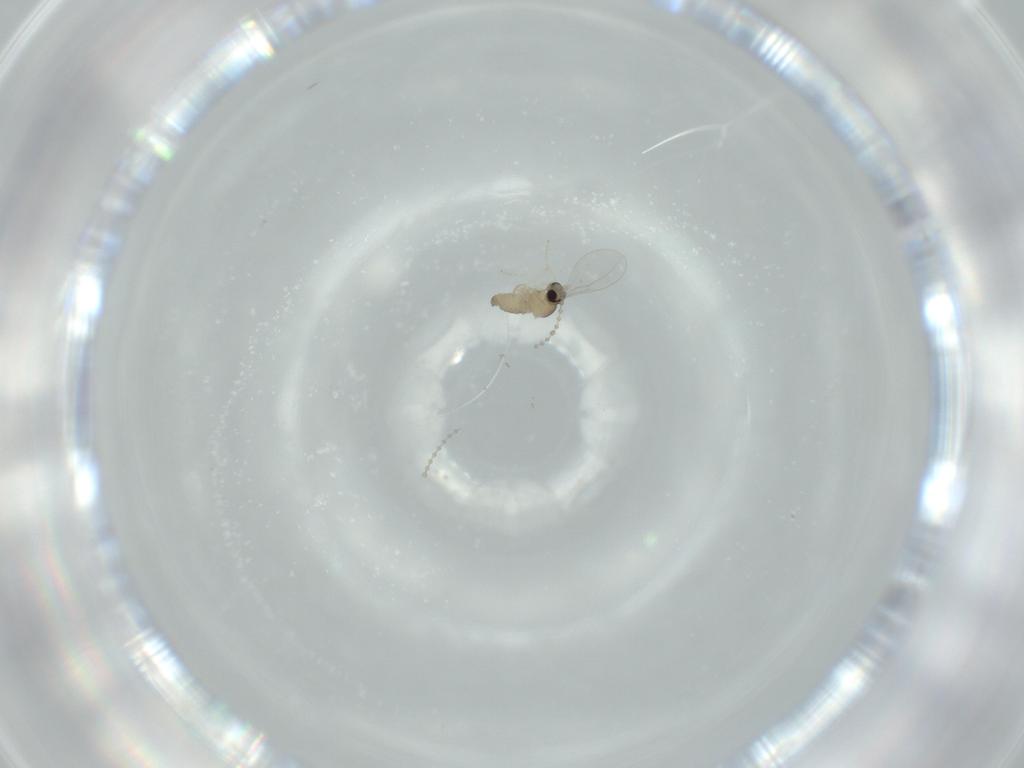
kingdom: Animalia
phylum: Arthropoda
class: Insecta
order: Diptera
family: Cecidomyiidae
